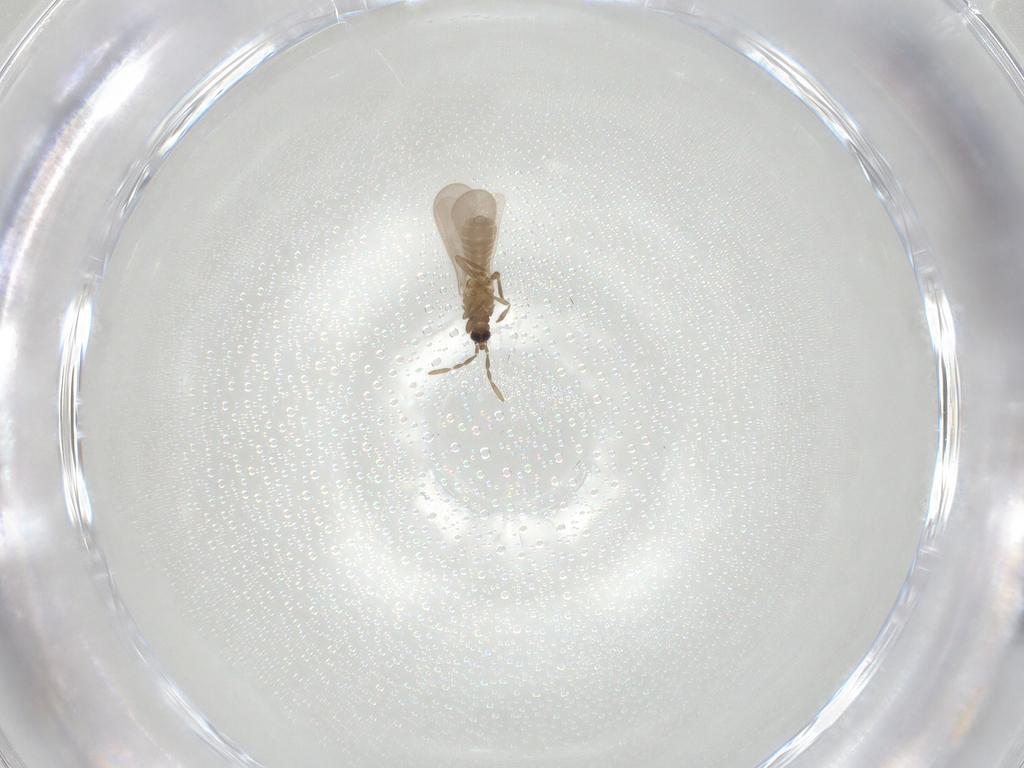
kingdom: Animalia
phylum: Arthropoda
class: Insecta
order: Hemiptera
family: Enicocephalidae
